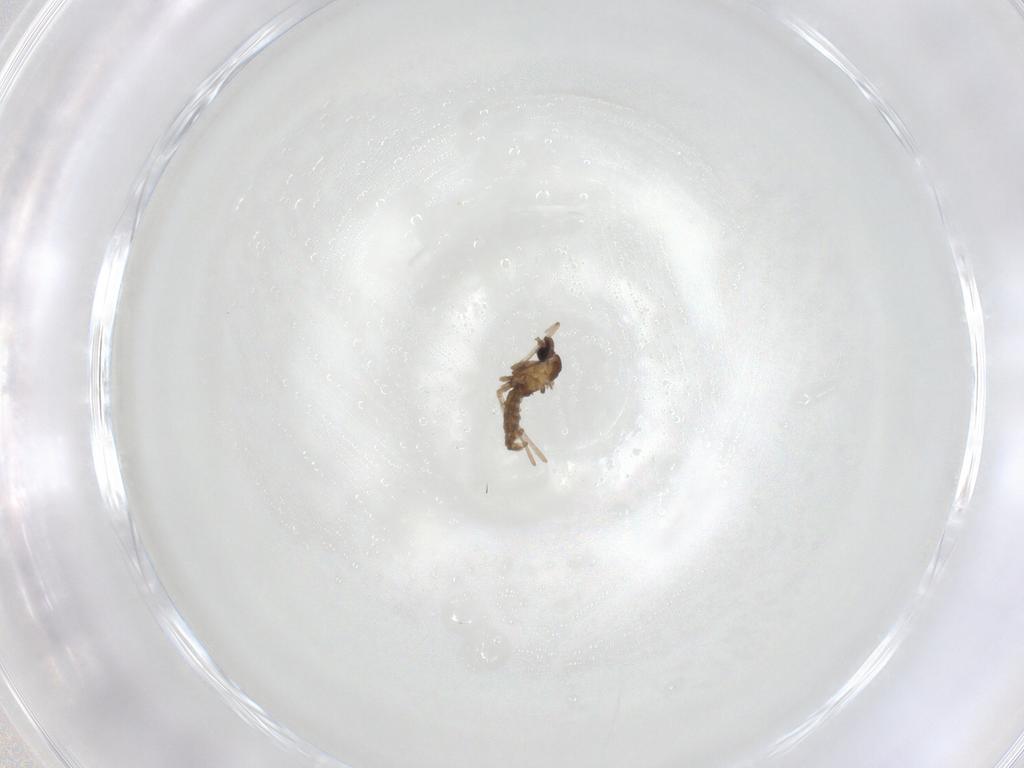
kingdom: Animalia
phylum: Arthropoda
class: Insecta
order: Diptera
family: Cecidomyiidae
